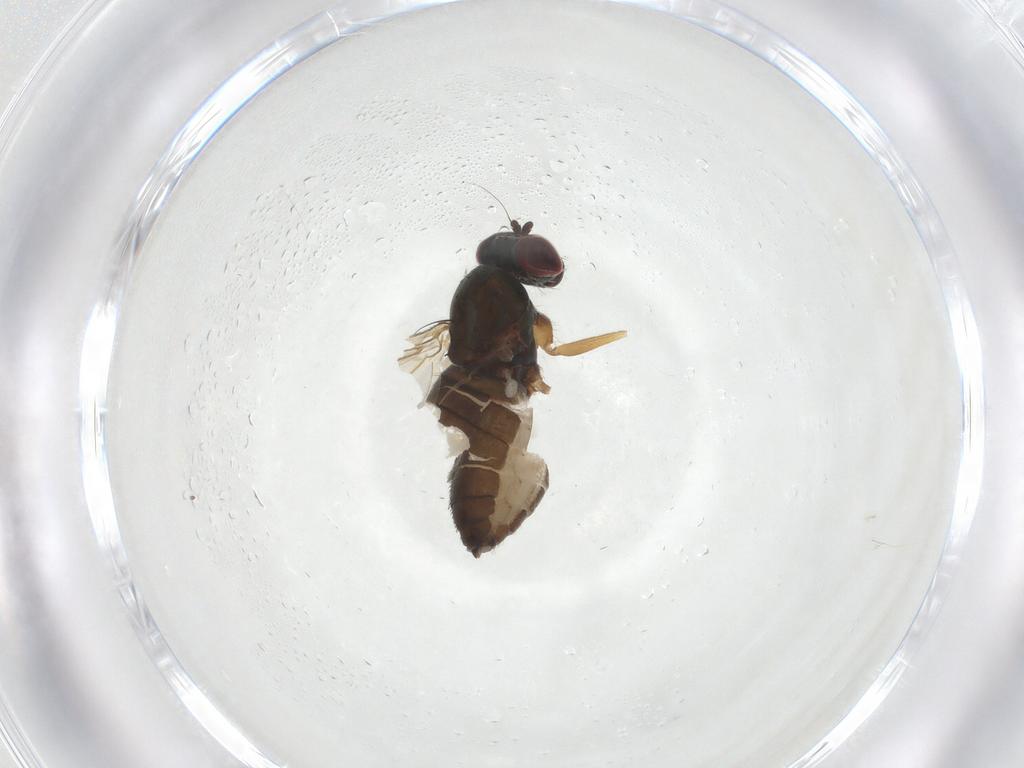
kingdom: Animalia
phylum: Arthropoda
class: Insecta
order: Diptera
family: Dolichopodidae
